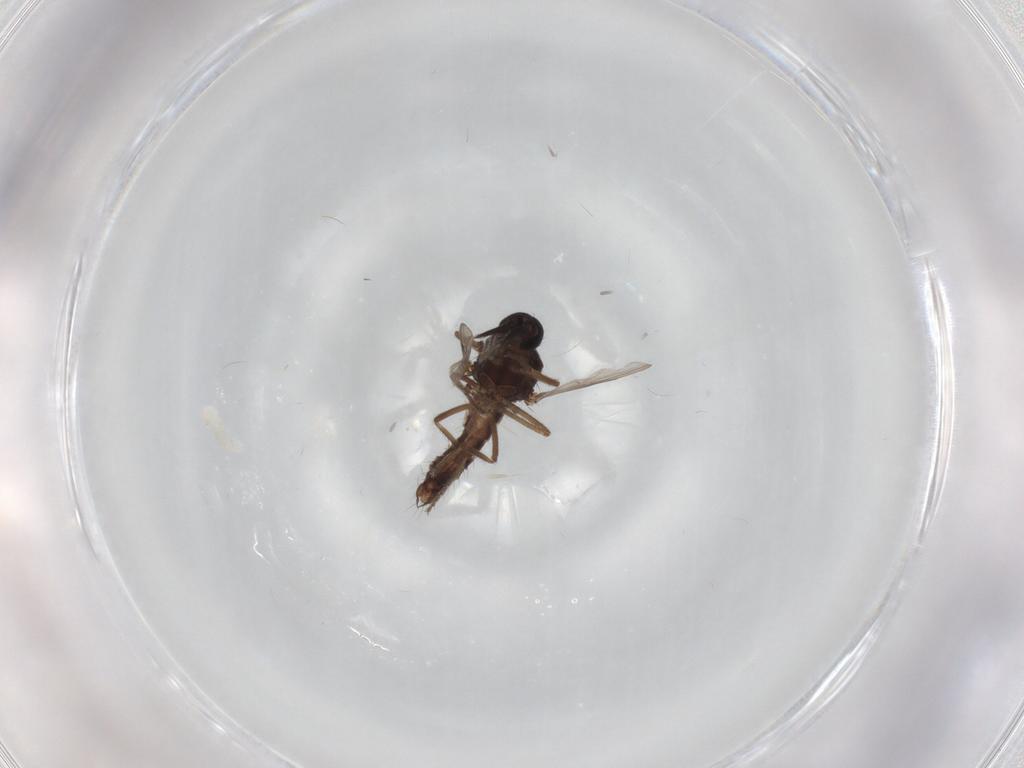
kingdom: Animalia
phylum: Arthropoda
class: Insecta
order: Diptera
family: Ceratopogonidae
